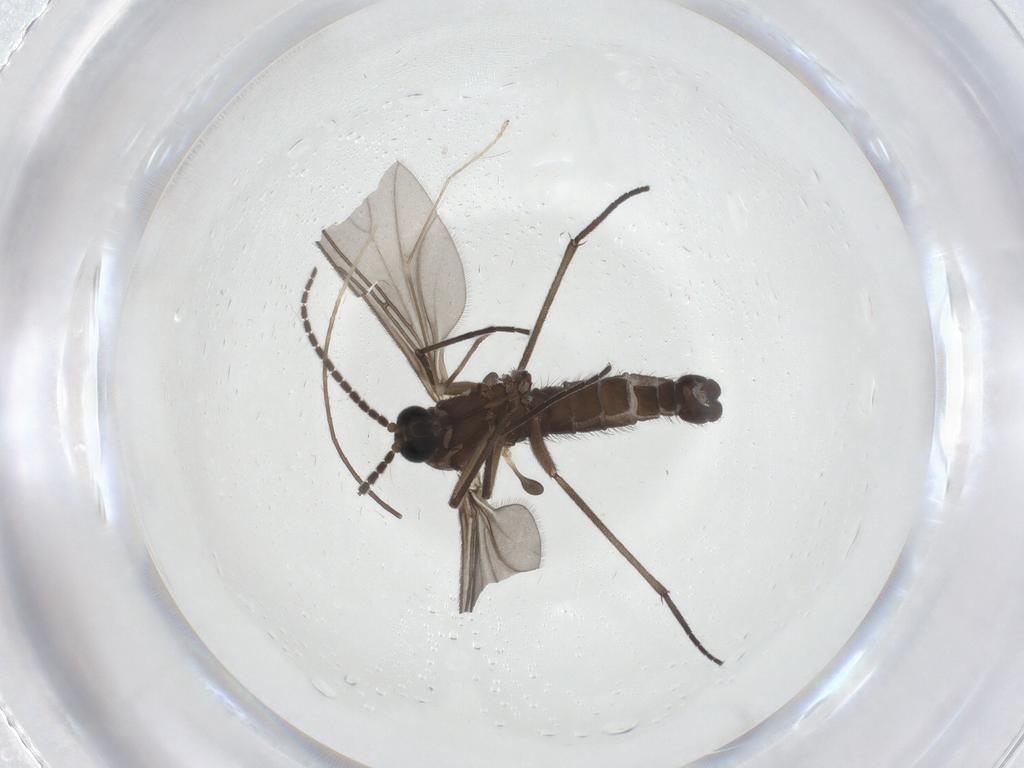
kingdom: Animalia
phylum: Arthropoda
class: Insecta
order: Diptera
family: Sciaridae
